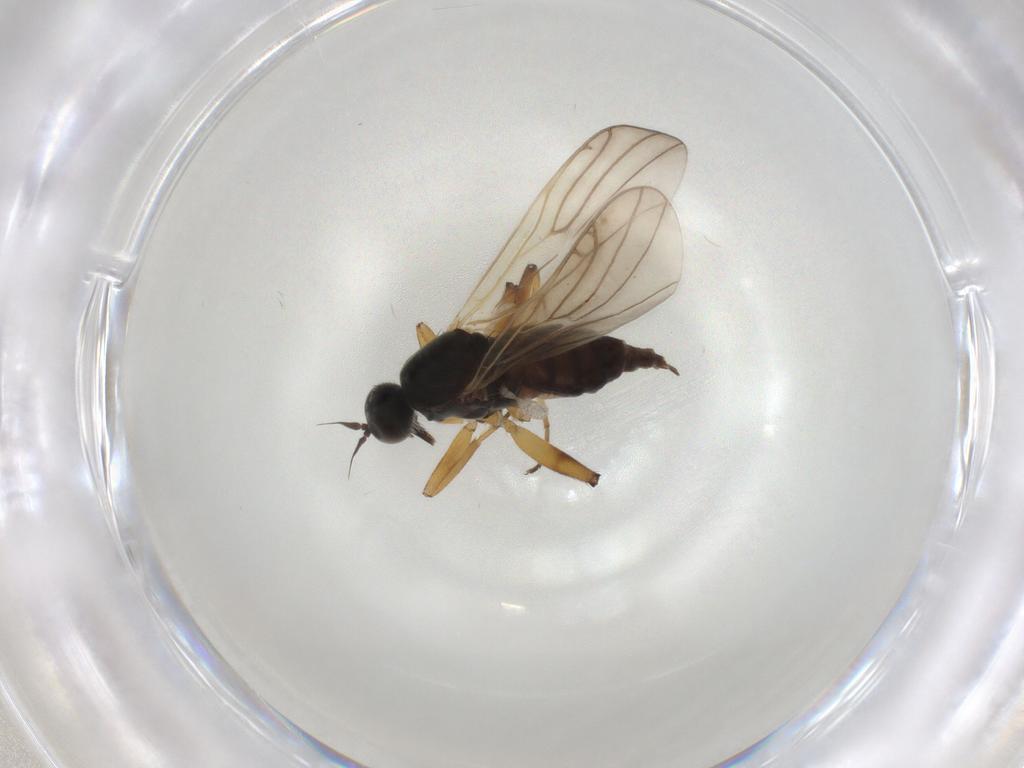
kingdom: Animalia
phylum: Arthropoda
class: Insecta
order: Diptera
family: Hybotidae
